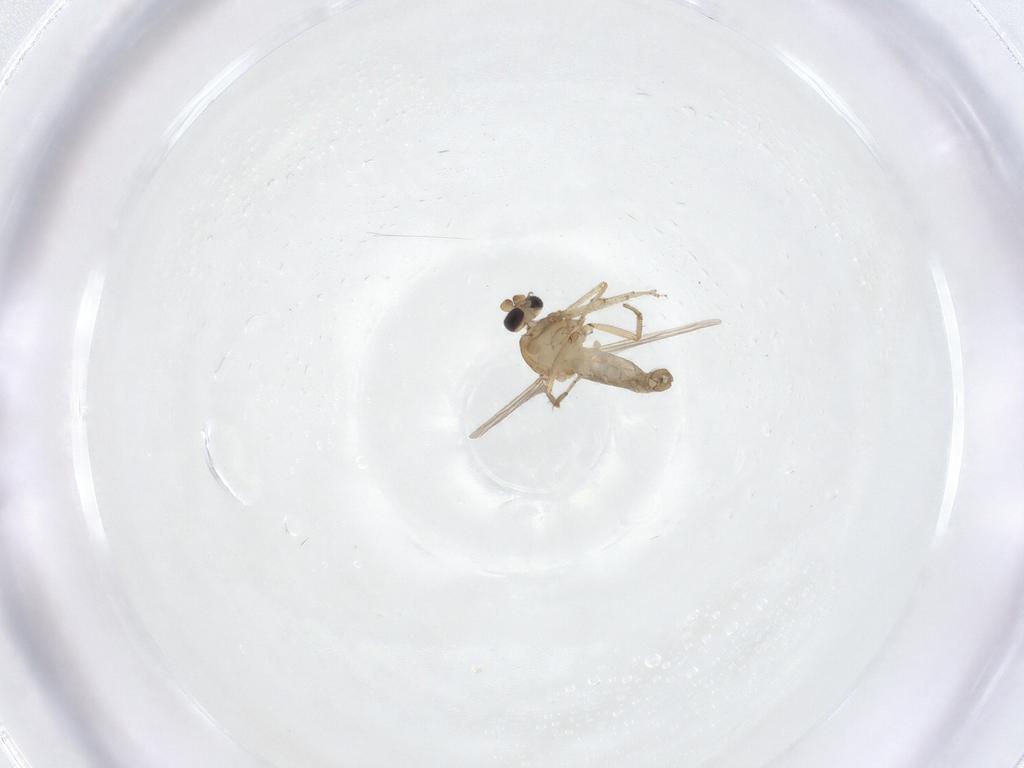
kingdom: Animalia
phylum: Arthropoda
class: Insecta
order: Diptera
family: Ceratopogonidae
